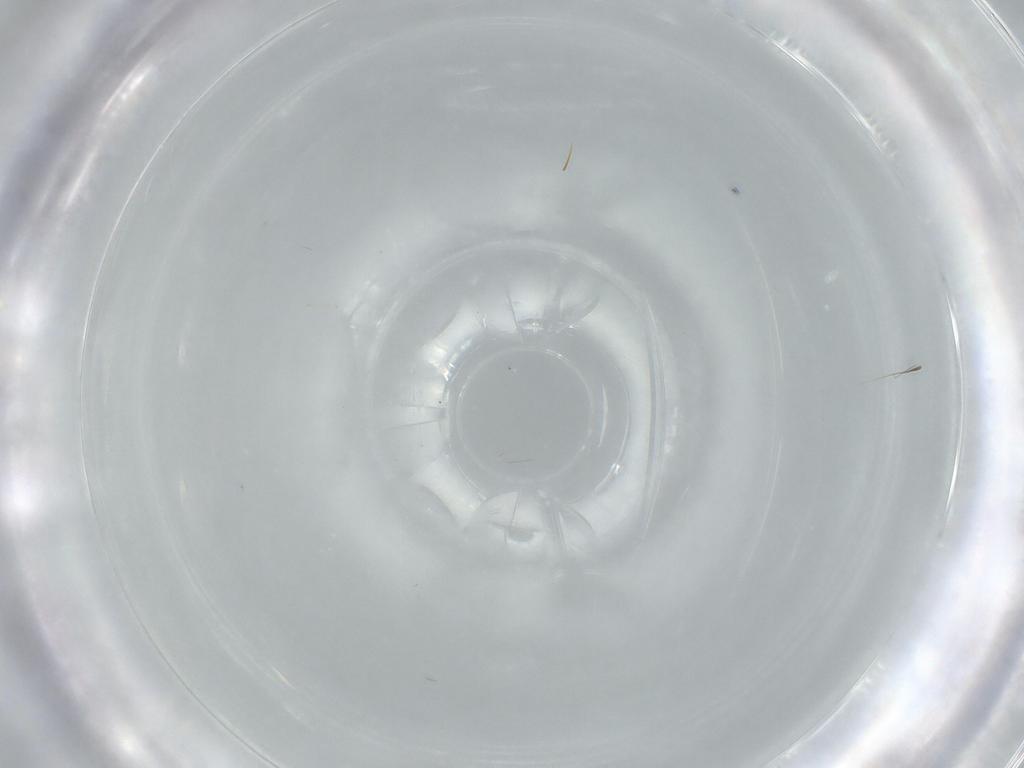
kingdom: Animalia
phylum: Arthropoda
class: Insecta
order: Diptera
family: Cecidomyiidae
